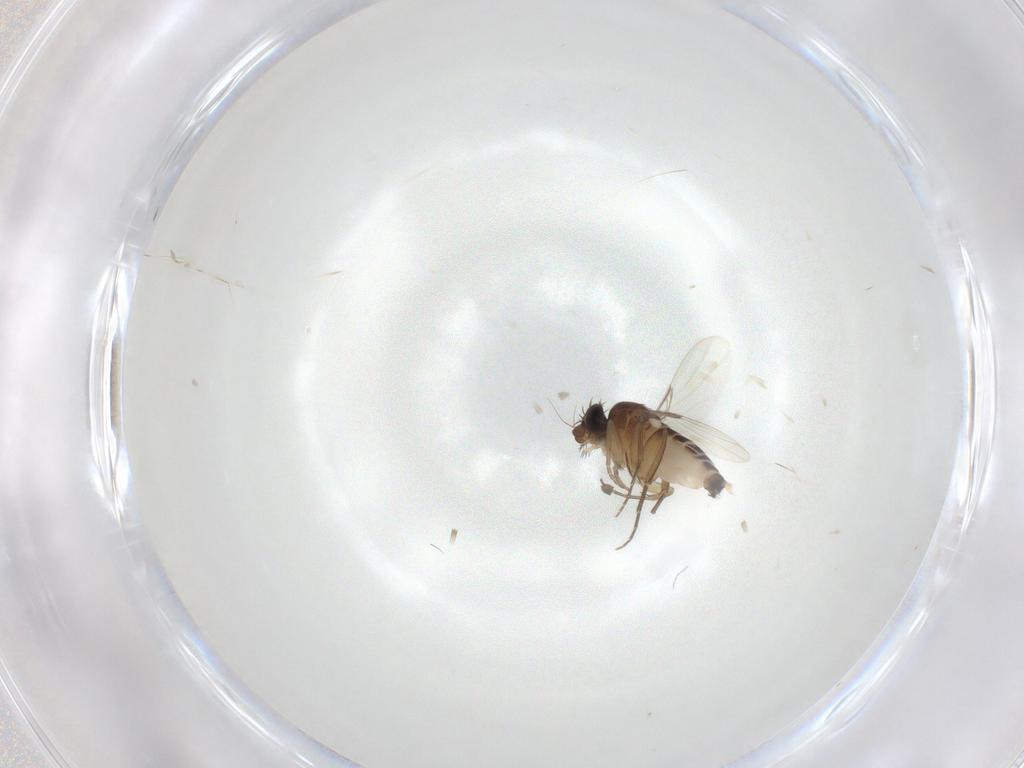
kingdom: Animalia
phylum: Arthropoda
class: Insecta
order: Diptera
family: Phoridae
